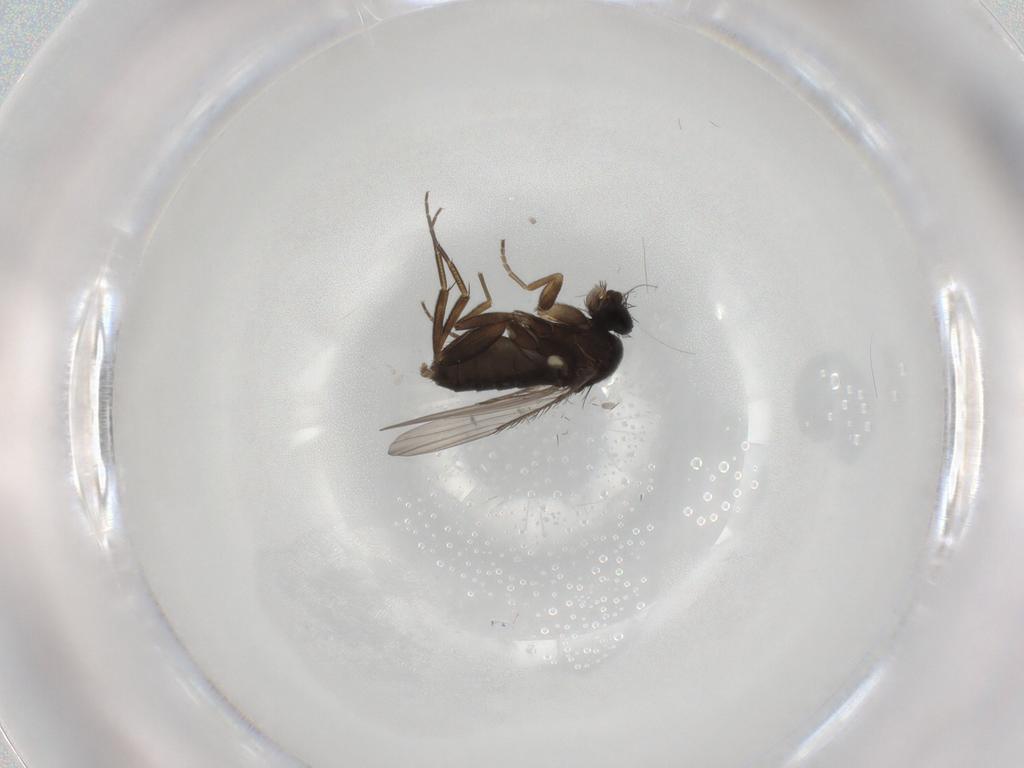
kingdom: Animalia
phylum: Arthropoda
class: Insecta
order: Diptera
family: Phoridae
